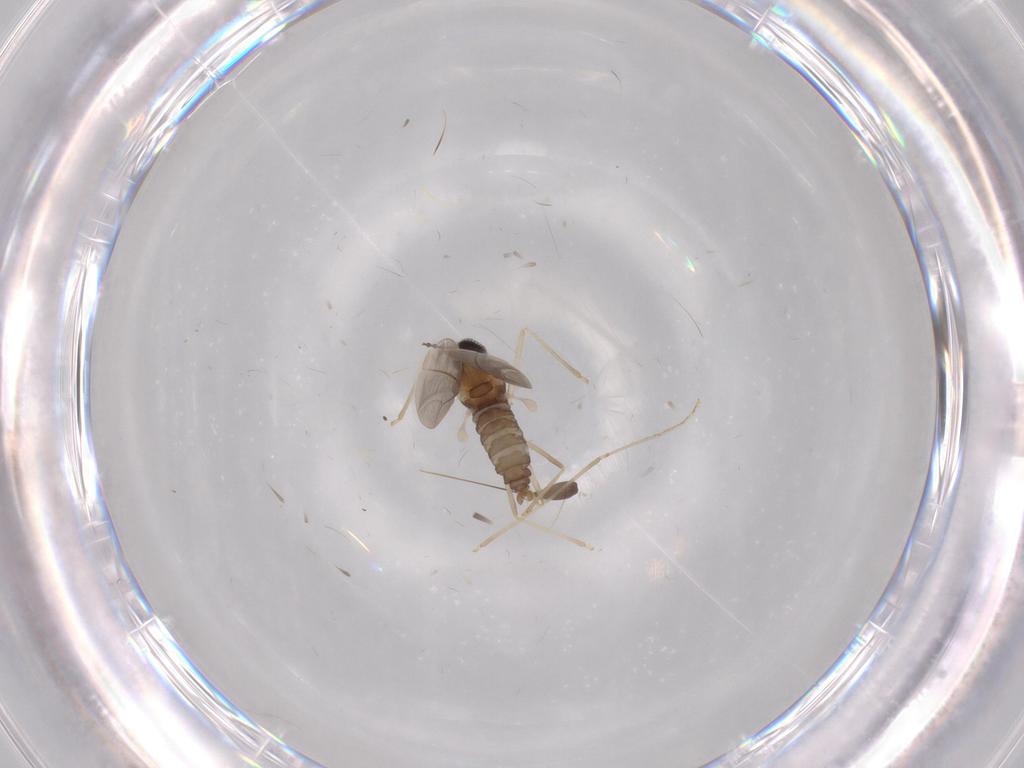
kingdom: Animalia
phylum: Arthropoda
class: Insecta
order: Diptera
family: Cecidomyiidae
